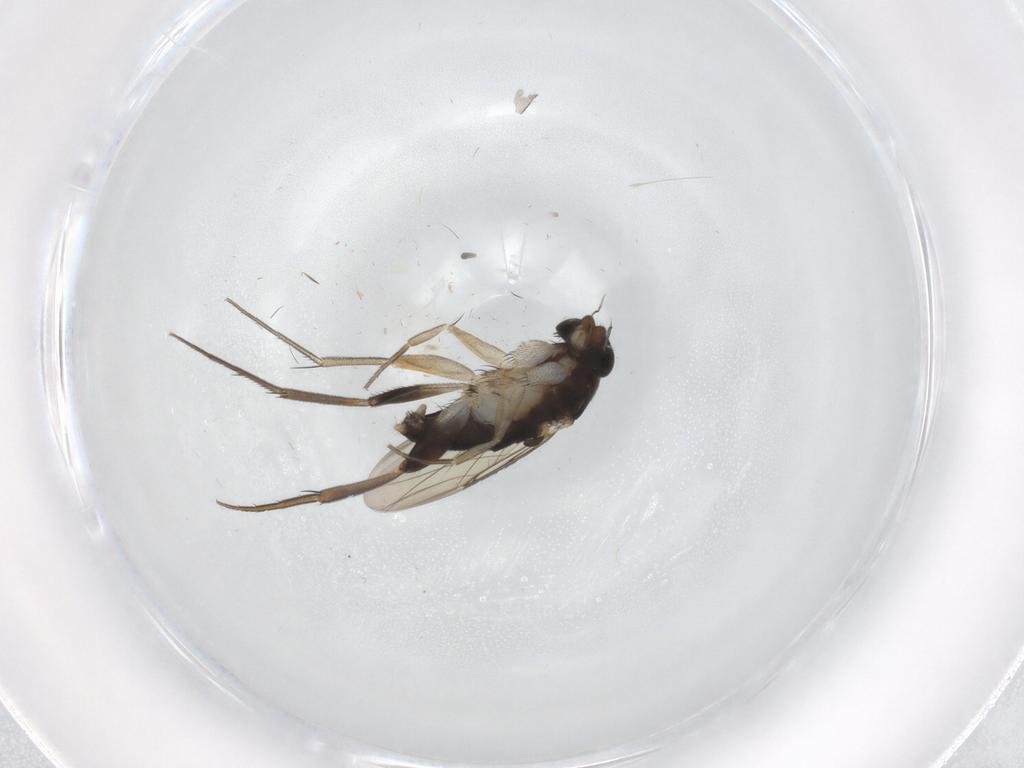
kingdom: Animalia
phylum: Arthropoda
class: Insecta
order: Diptera
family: Phoridae
